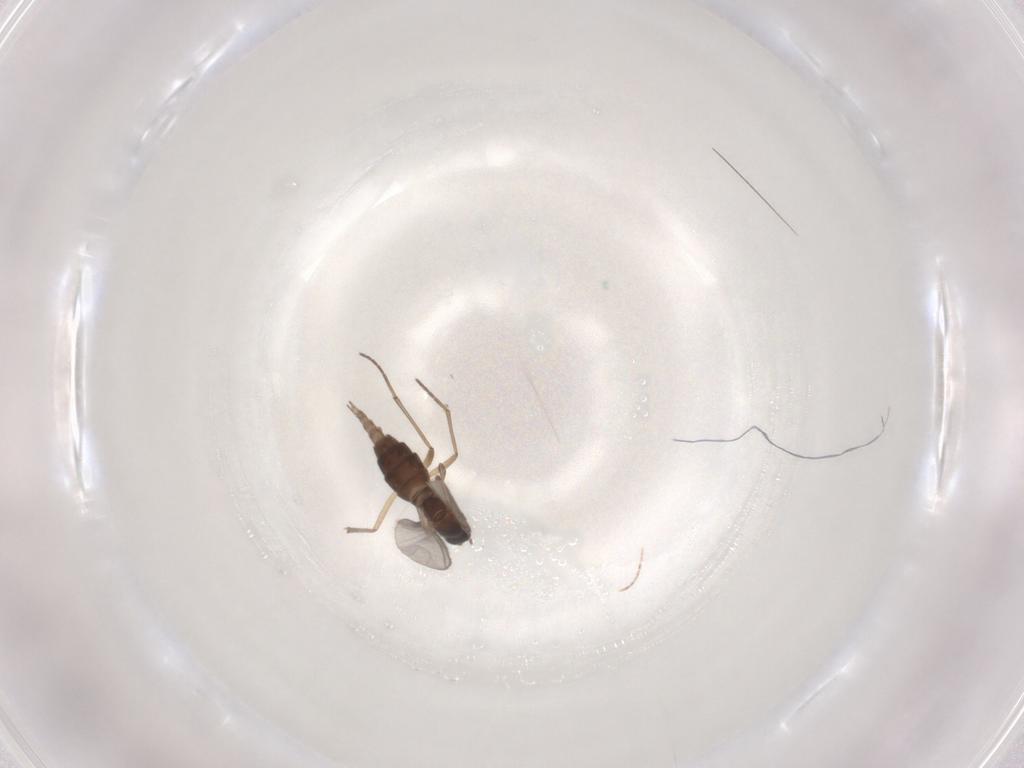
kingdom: Animalia
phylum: Arthropoda
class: Insecta
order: Diptera
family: Sciaridae
